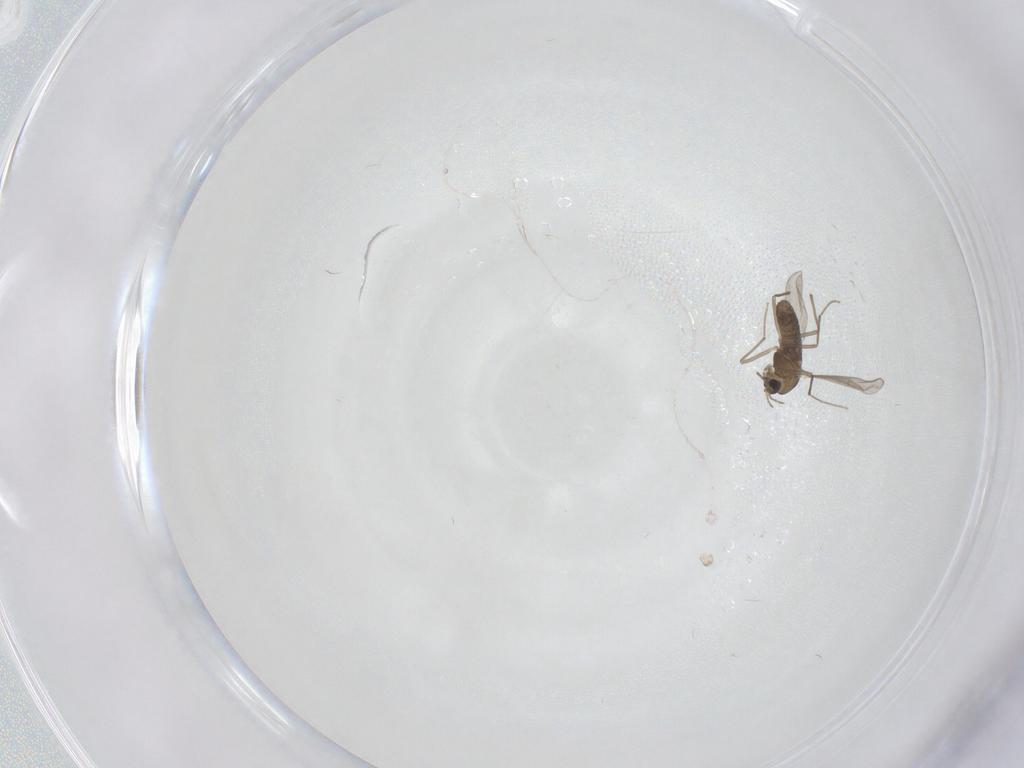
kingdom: Animalia
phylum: Arthropoda
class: Insecta
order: Diptera
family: Chironomidae
